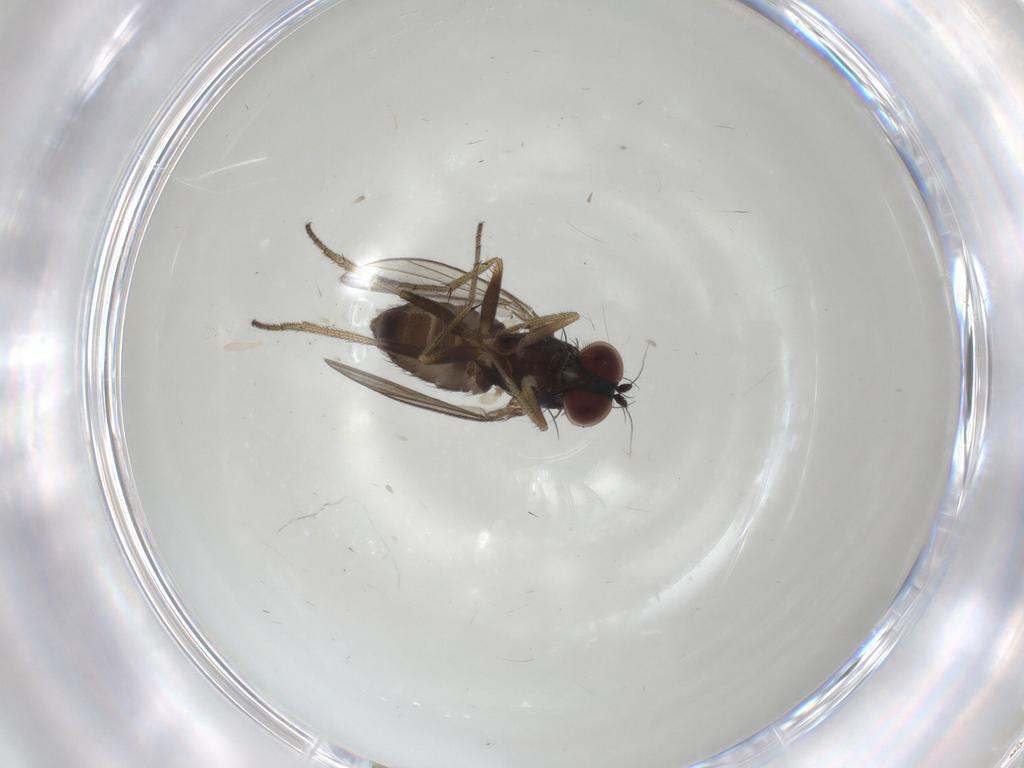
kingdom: Animalia
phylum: Arthropoda
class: Insecta
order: Diptera
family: Dolichopodidae
